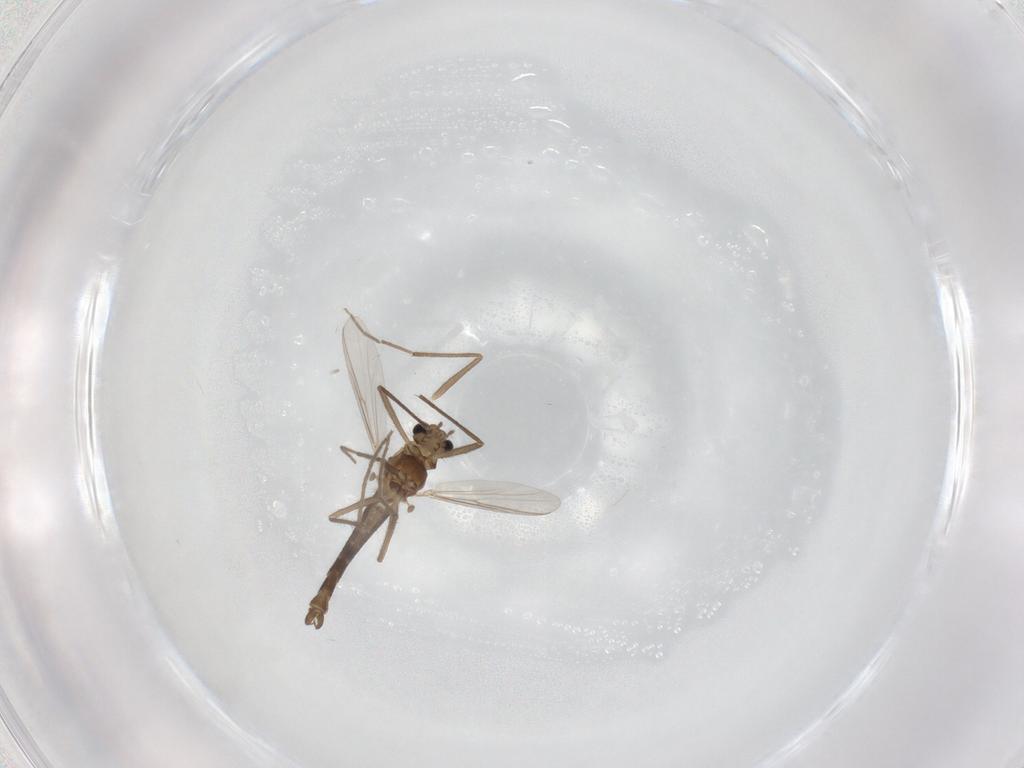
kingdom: Animalia
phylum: Arthropoda
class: Insecta
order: Diptera
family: Chironomidae
